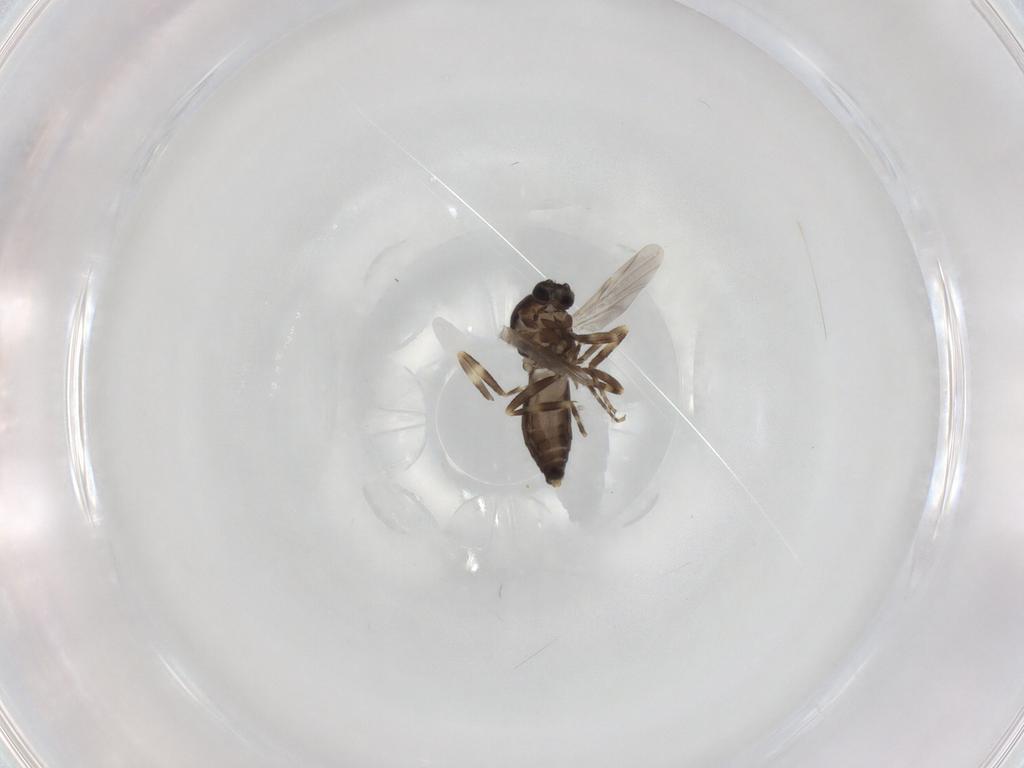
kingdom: Animalia
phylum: Arthropoda
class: Insecta
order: Diptera
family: Ceratopogonidae
